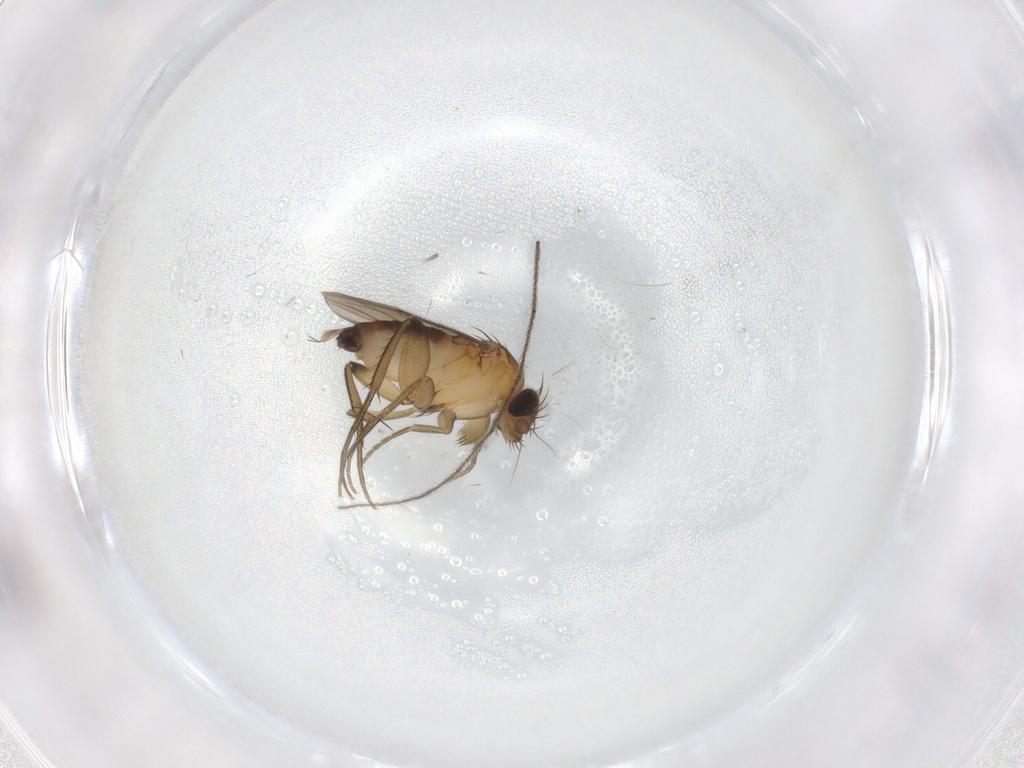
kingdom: Animalia
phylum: Arthropoda
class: Insecta
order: Diptera
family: Phoridae
